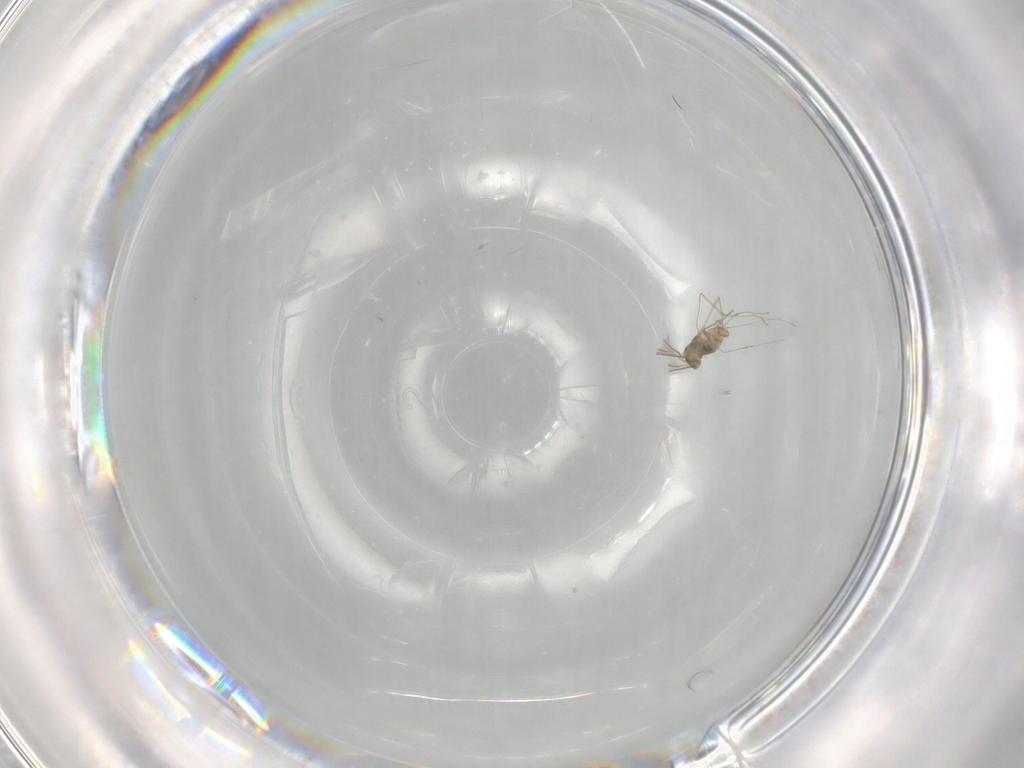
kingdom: Animalia
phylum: Arthropoda
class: Insecta
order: Diptera
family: Cecidomyiidae
